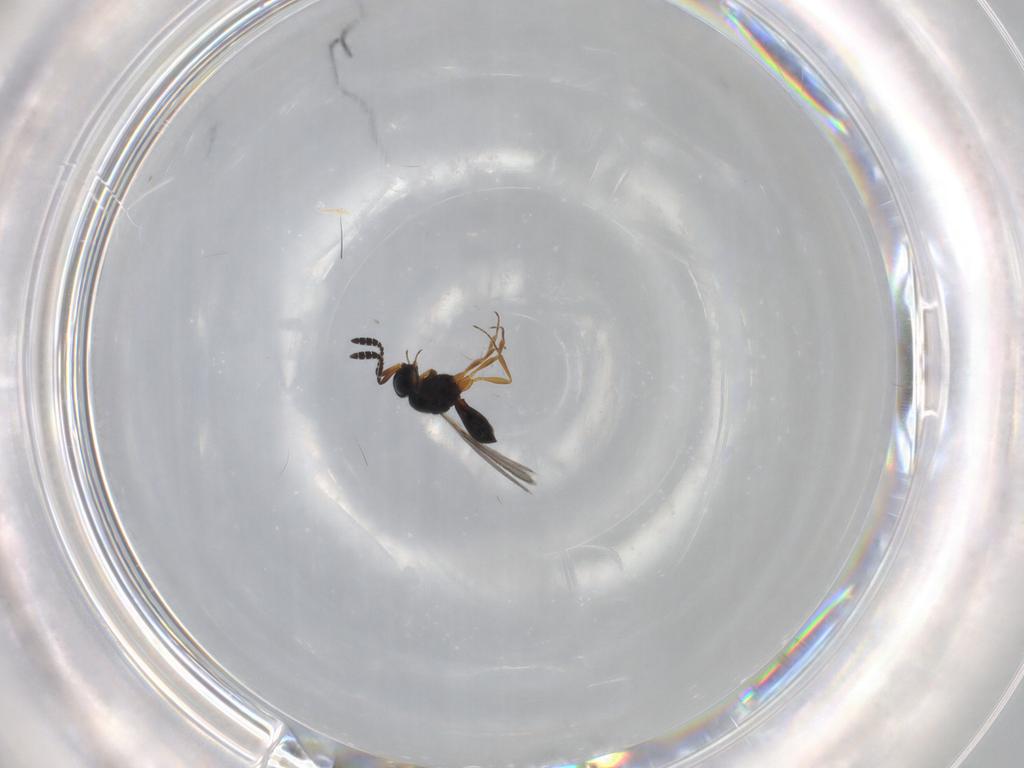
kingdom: Animalia
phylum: Arthropoda
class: Insecta
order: Hymenoptera
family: Scelionidae
